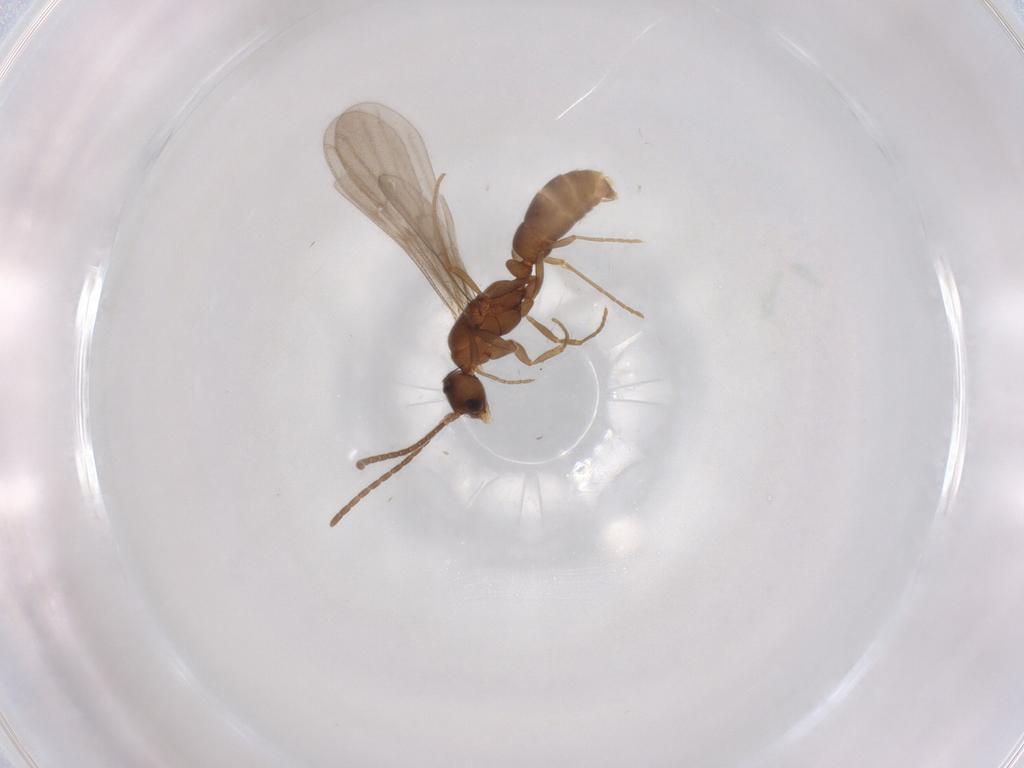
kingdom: Animalia
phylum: Arthropoda
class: Insecta
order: Hymenoptera
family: Formicidae
